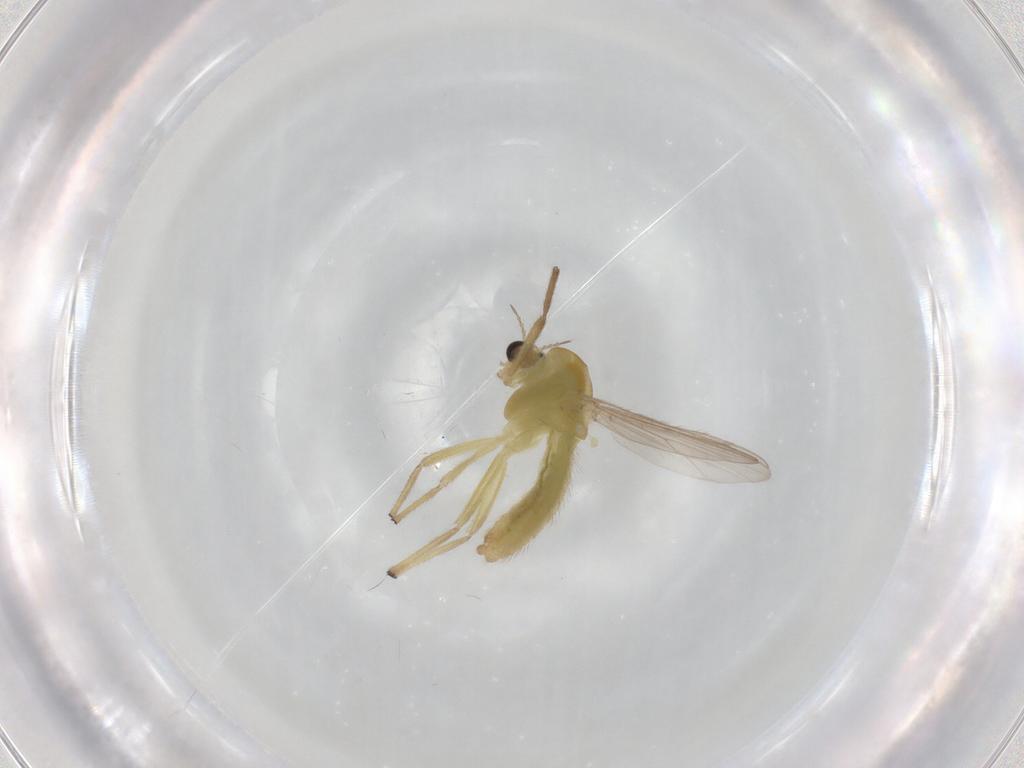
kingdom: Animalia
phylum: Arthropoda
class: Insecta
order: Diptera
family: Chironomidae
